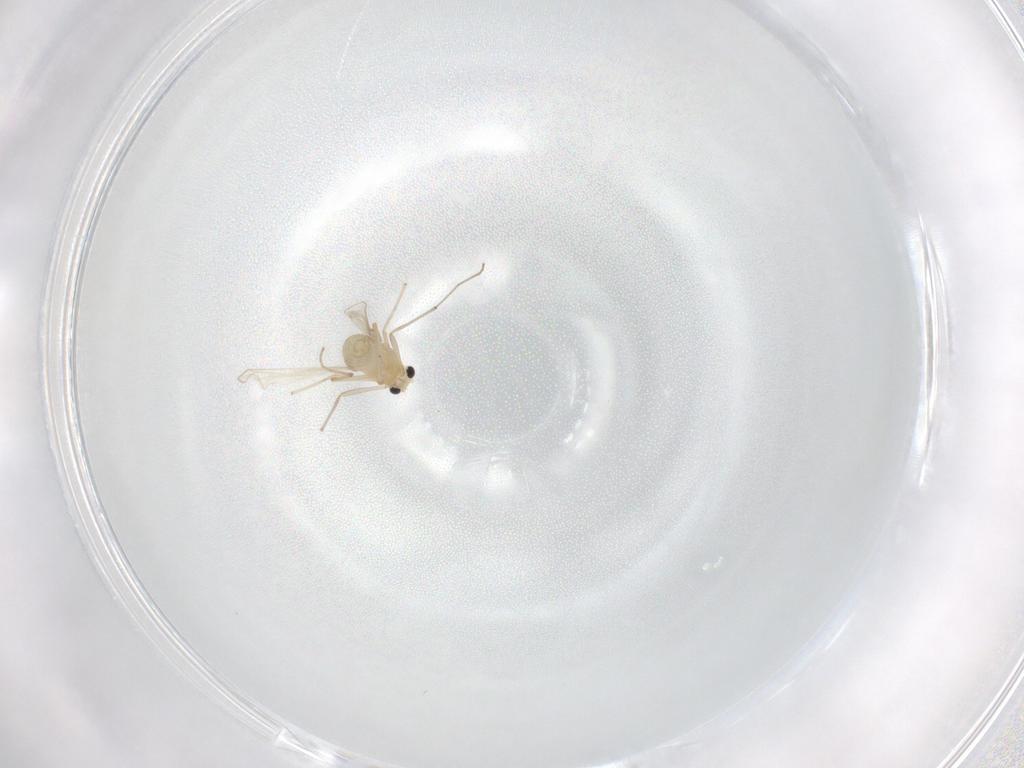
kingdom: Animalia
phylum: Arthropoda
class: Insecta
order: Diptera
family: Chironomidae
